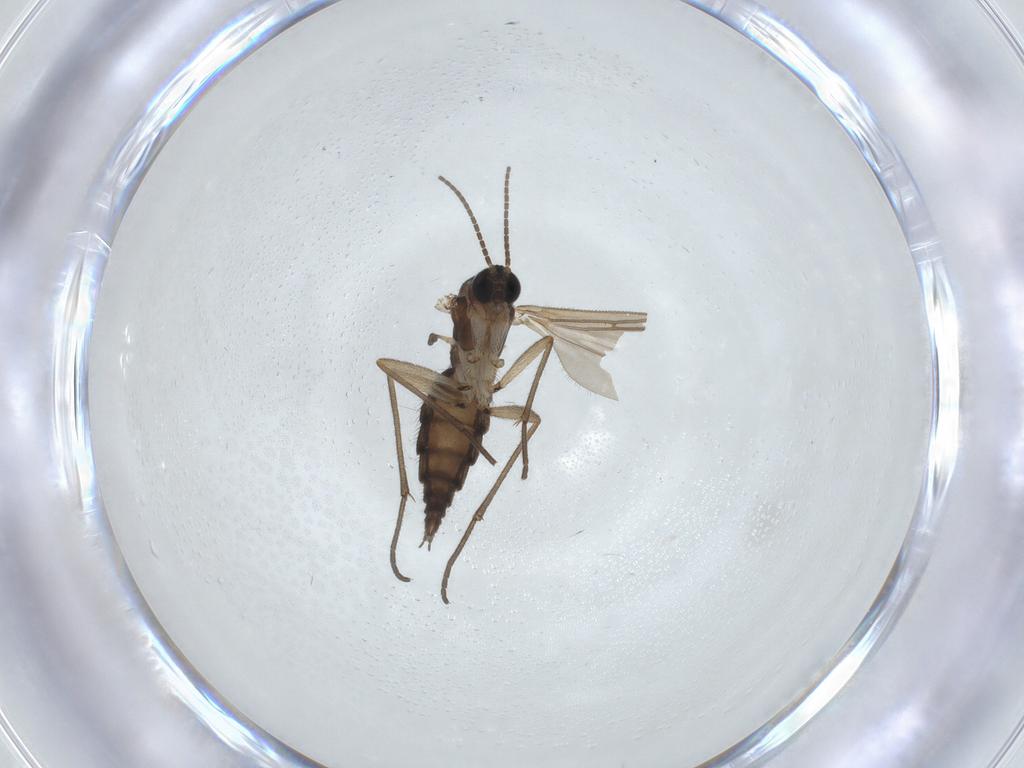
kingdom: Animalia
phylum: Arthropoda
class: Insecta
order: Diptera
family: Sciaridae
